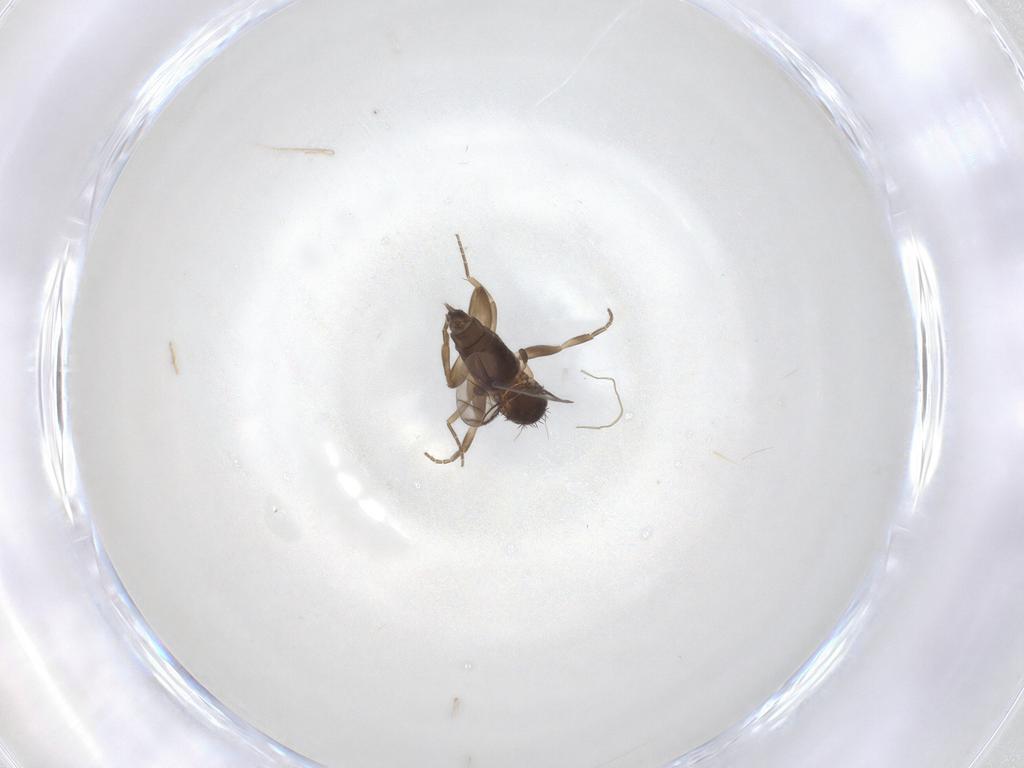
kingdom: Animalia
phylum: Arthropoda
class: Insecta
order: Diptera
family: Phoridae
